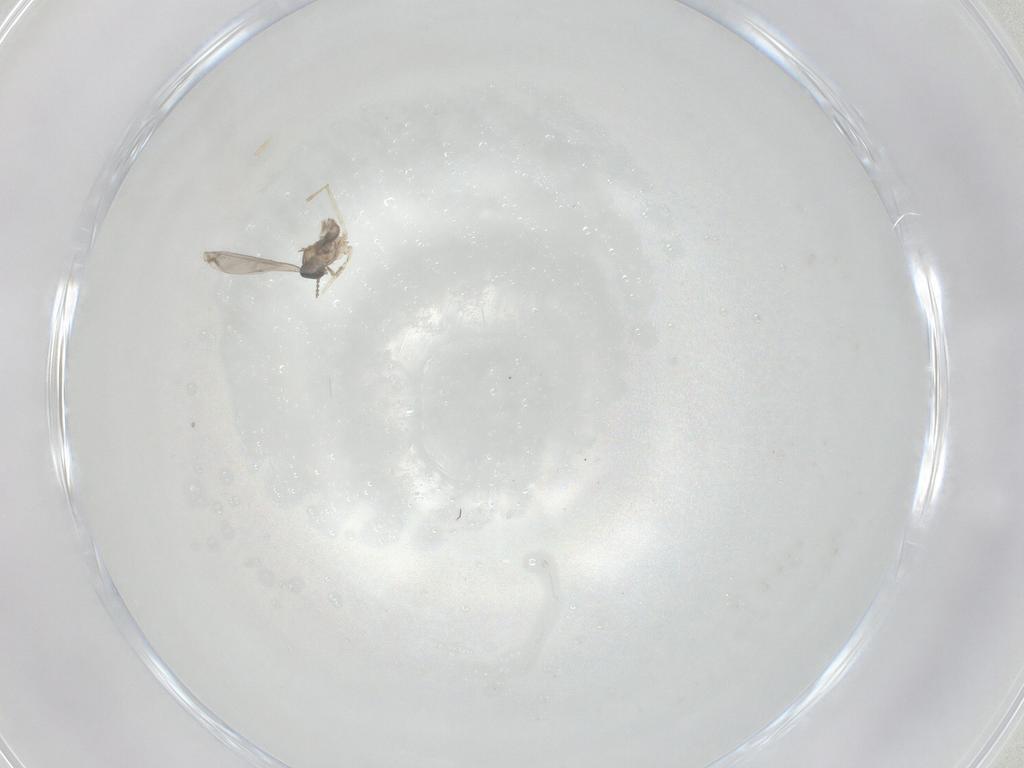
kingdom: Animalia
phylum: Arthropoda
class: Insecta
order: Diptera
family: Cecidomyiidae
